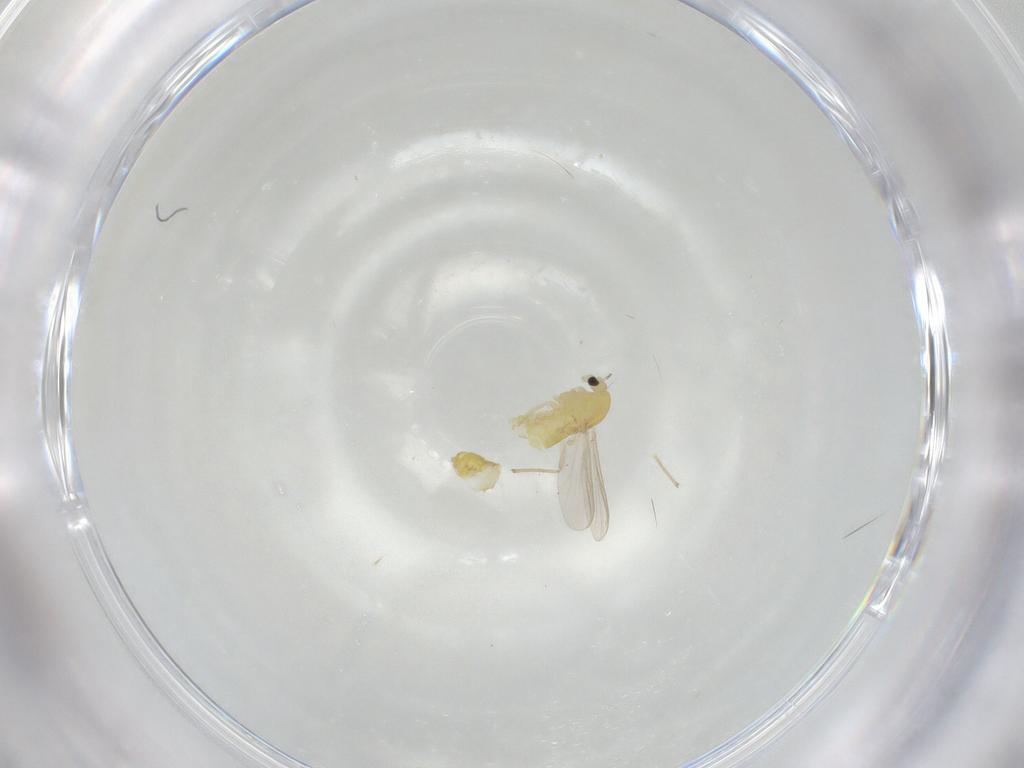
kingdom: Animalia
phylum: Arthropoda
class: Insecta
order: Diptera
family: Chironomidae
